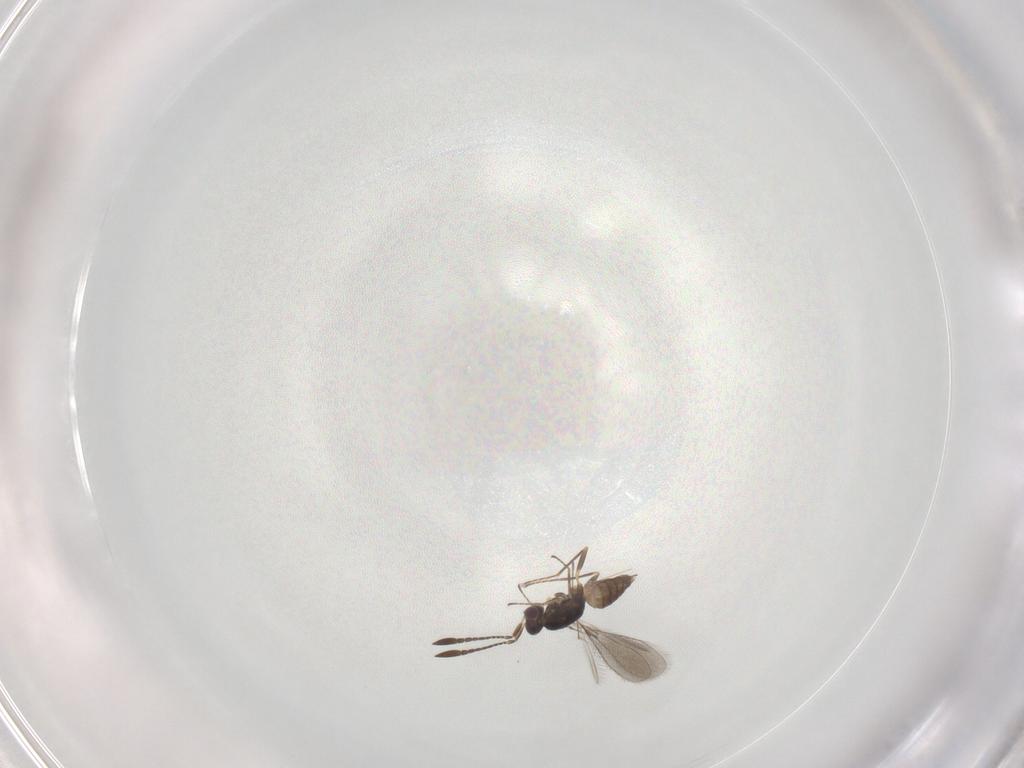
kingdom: Animalia
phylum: Arthropoda
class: Insecta
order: Hymenoptera
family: Mymaridae
